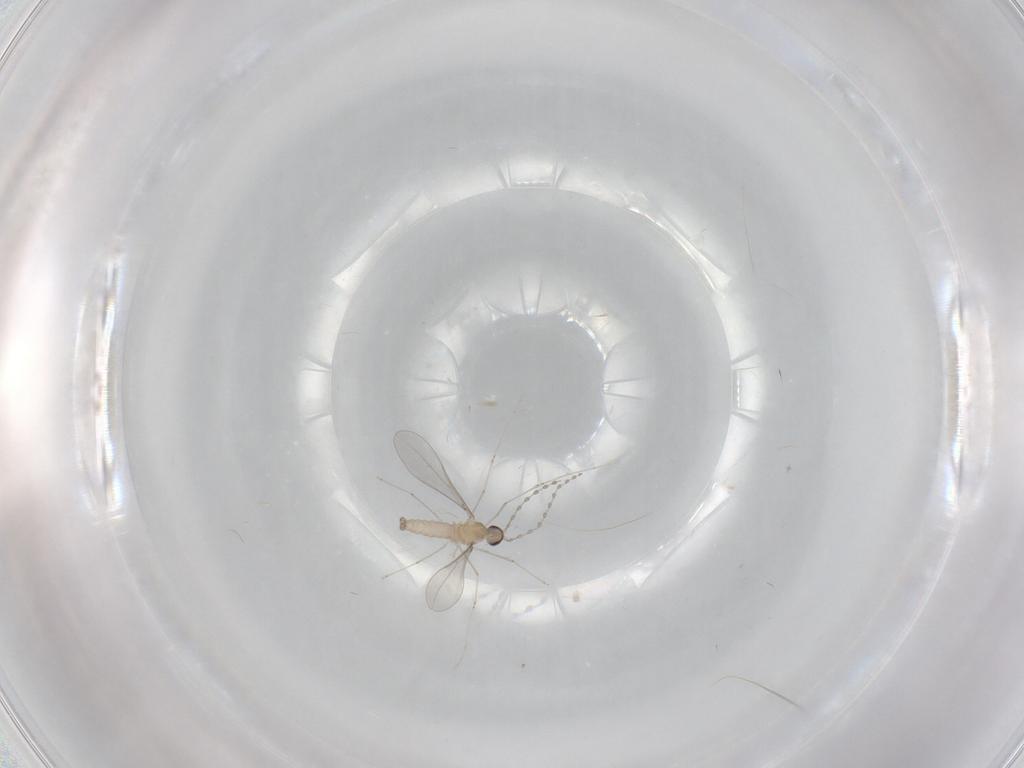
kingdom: Animalia
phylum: Arthropoda
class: Insecta
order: Diptera
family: Cecidomyiidae
